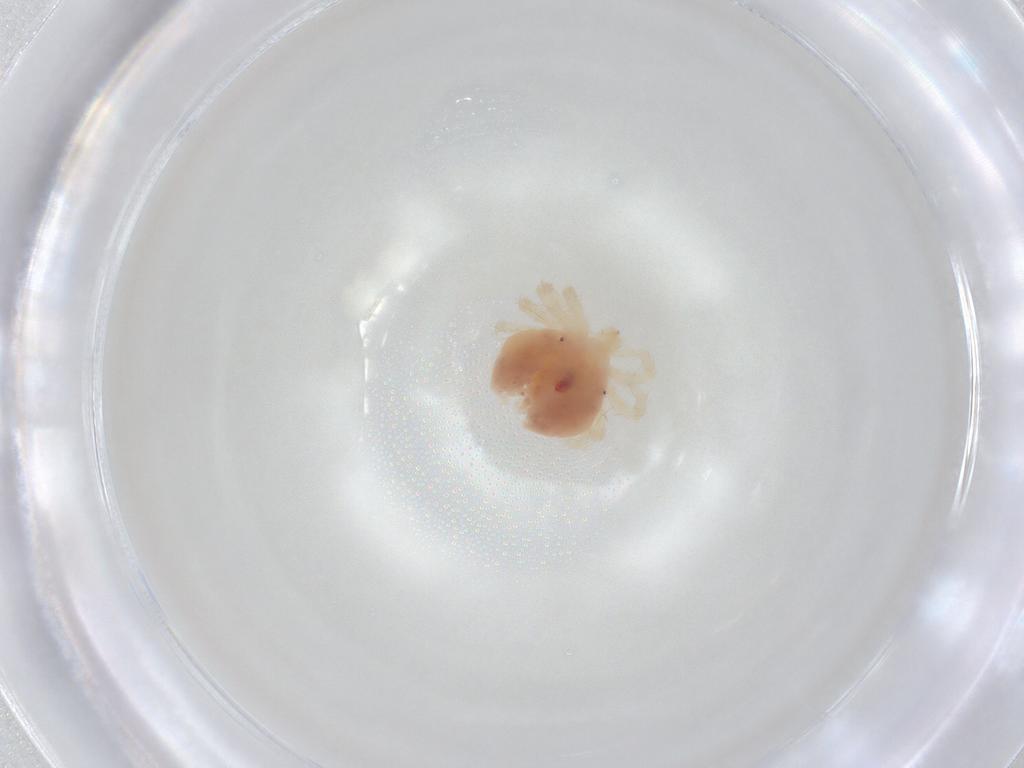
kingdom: Animalia
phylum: Arthropoda
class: Arachnida
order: Trombidiformes
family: Anystidae
